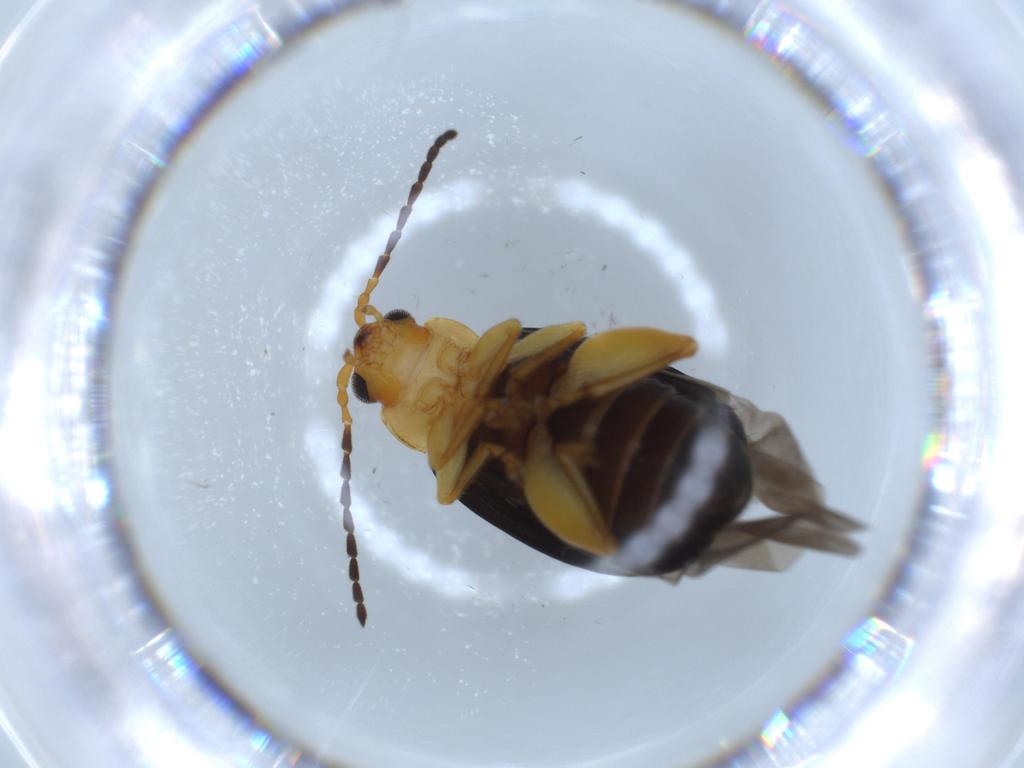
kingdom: Animalia
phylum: Arthropoda
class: Insecta
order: Coleoptera
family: Chrysomelidae
